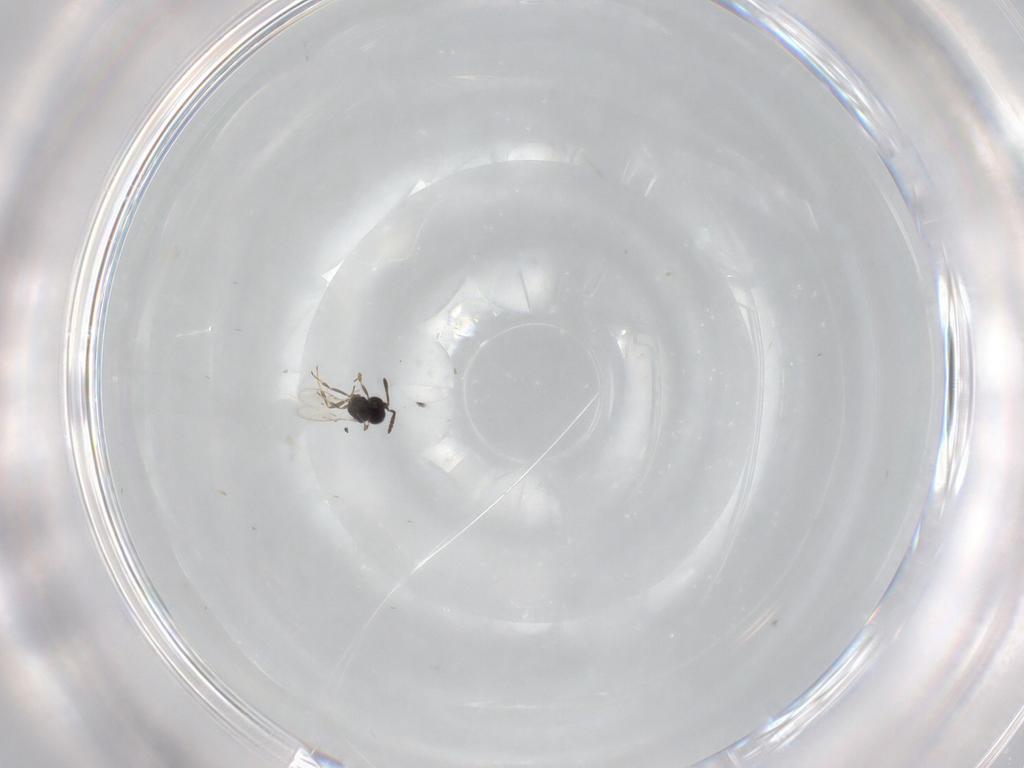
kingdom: Animalia
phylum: Arthropoda
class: Insecta
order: Hymenoptera
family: Scelionidae
